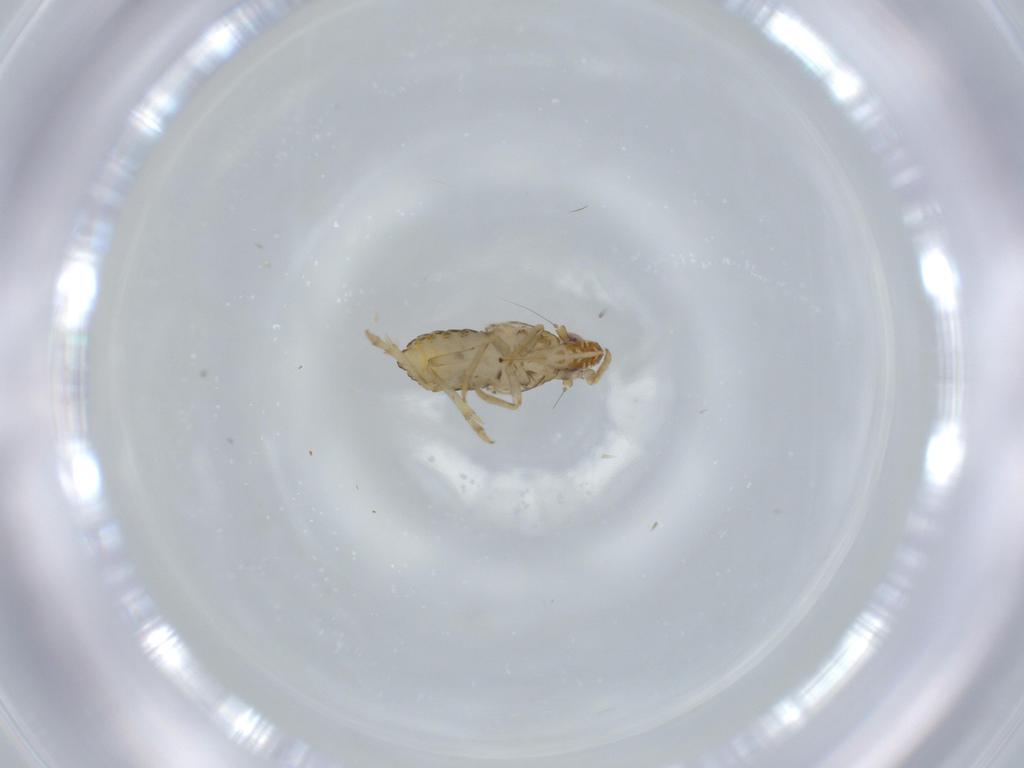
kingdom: Animalia
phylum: Arthropoda
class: Insecta
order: Hemiptera
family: Delphacidae
